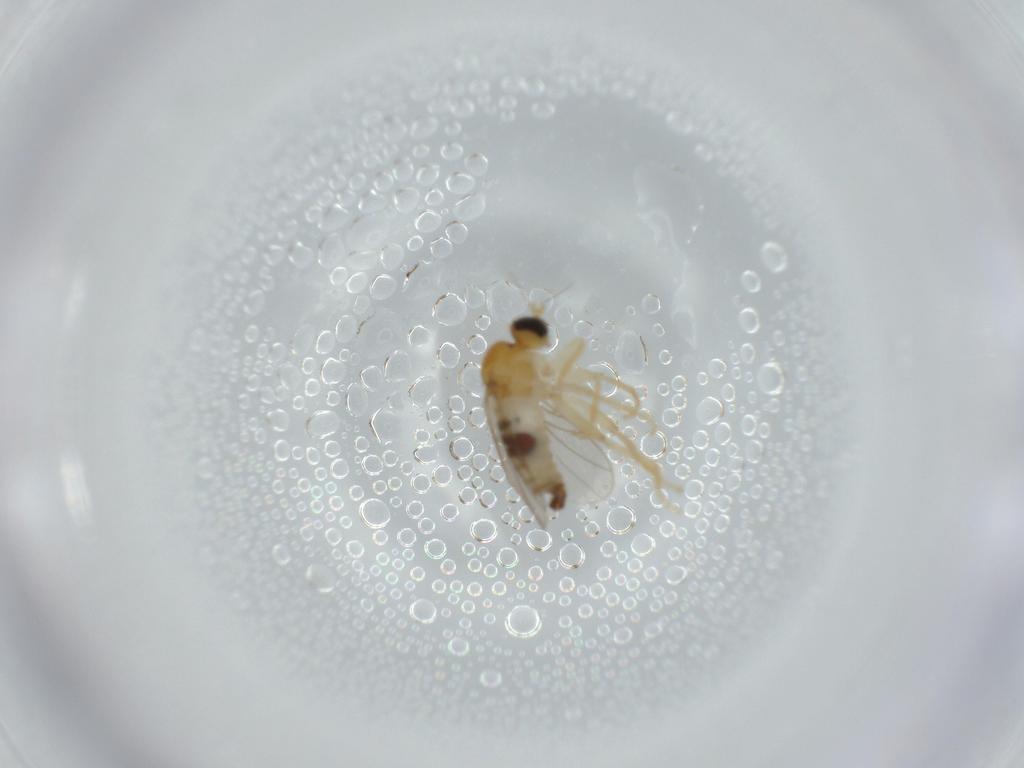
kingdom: Animalia
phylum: Arthropoda
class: Insecta
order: Diptera
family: Hybotidae
